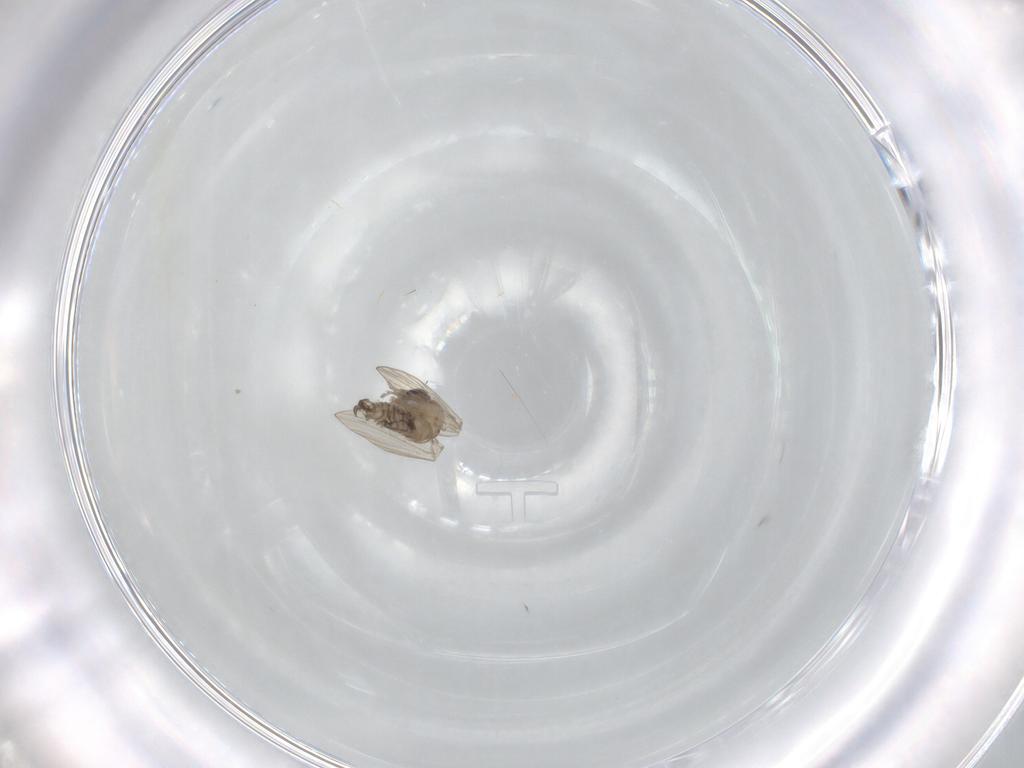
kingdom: Animalia
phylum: Arthropoda
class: Insecta
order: Diptera
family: Psychodidae
